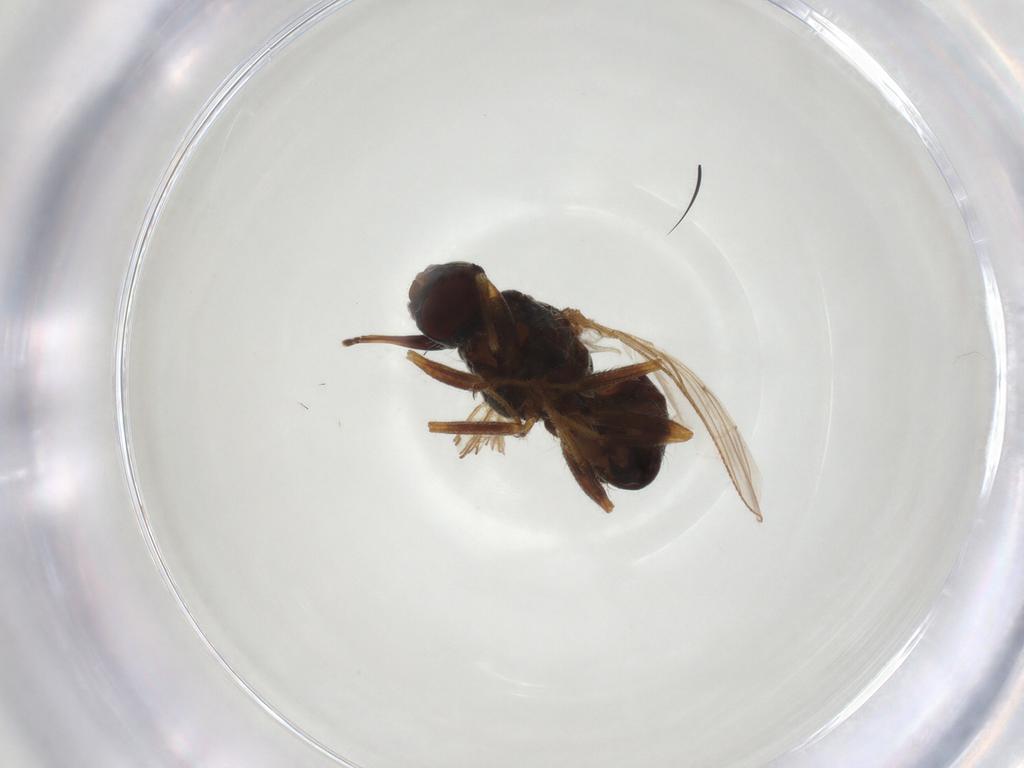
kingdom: Animalia
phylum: Arthropoda
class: Insecta
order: Diptera
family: Muscidae
